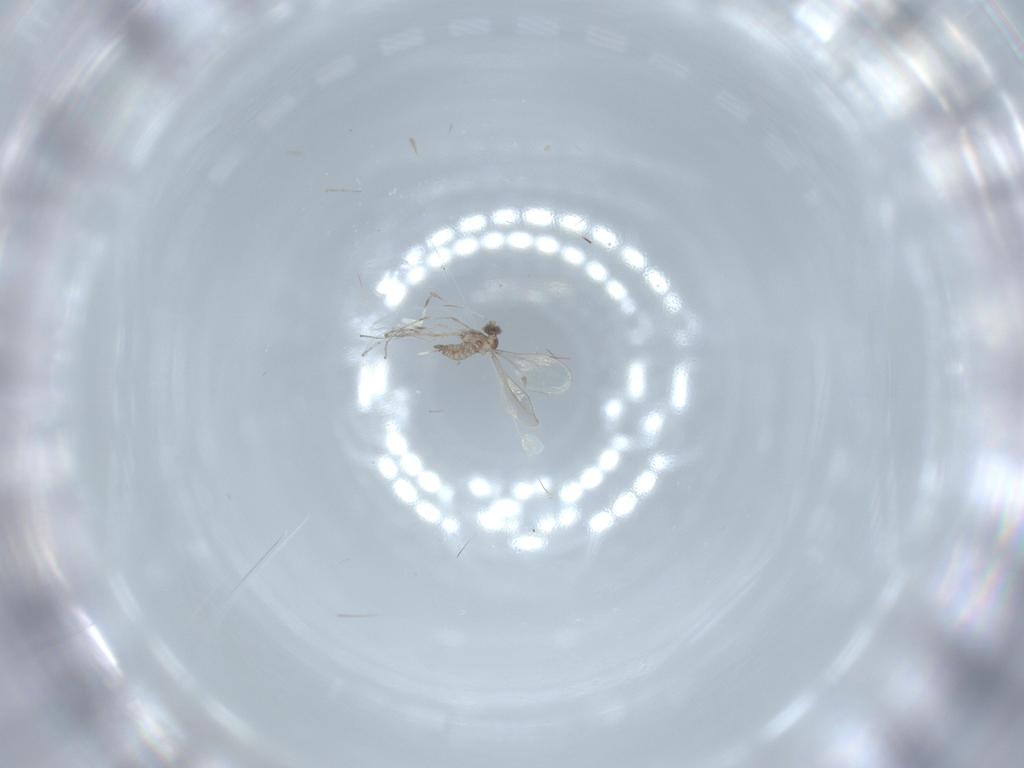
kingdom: Animalia
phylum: Arthropoda
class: Insecta
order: Diptera
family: Cecidomyiidae
